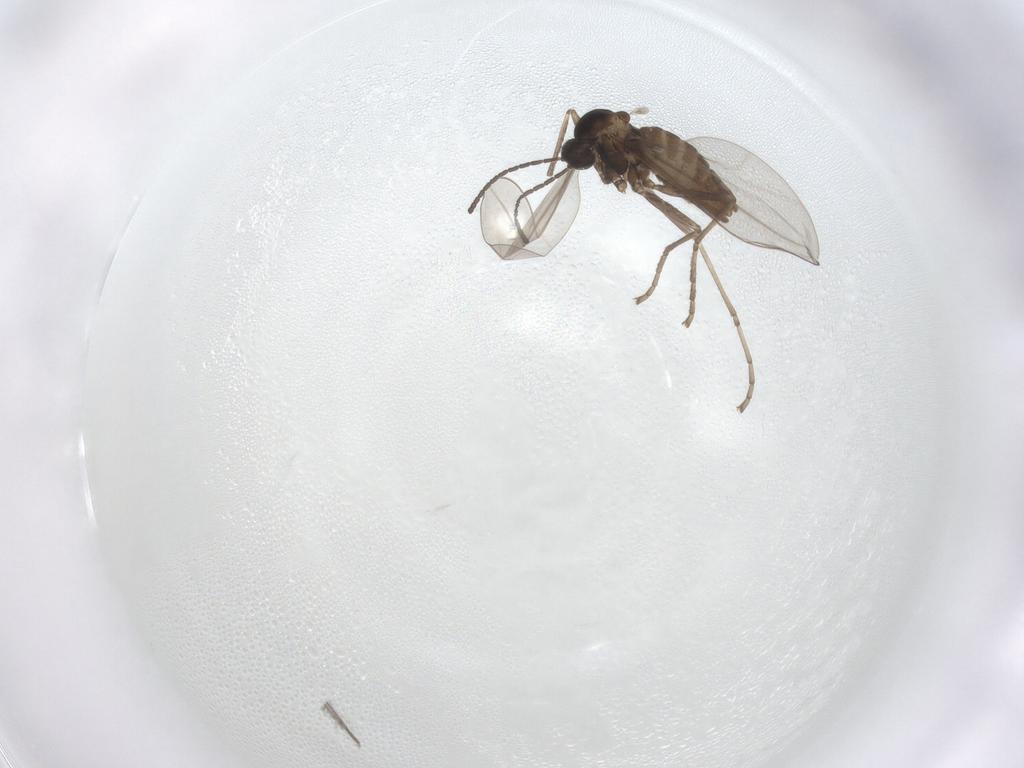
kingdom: Animalia
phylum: Arthropoda
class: Insecta
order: Diptera
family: Cecidomyiidae
